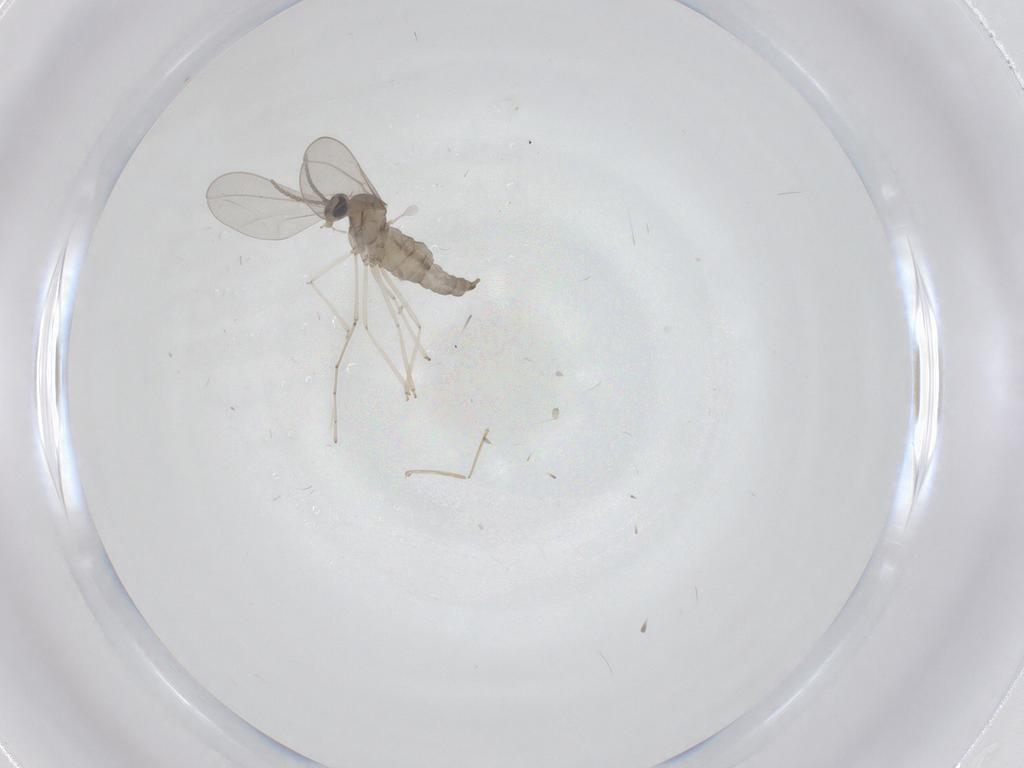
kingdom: Animalia
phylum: Arthropoda
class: Insecta
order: Diptera
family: Cecidomyiidae
